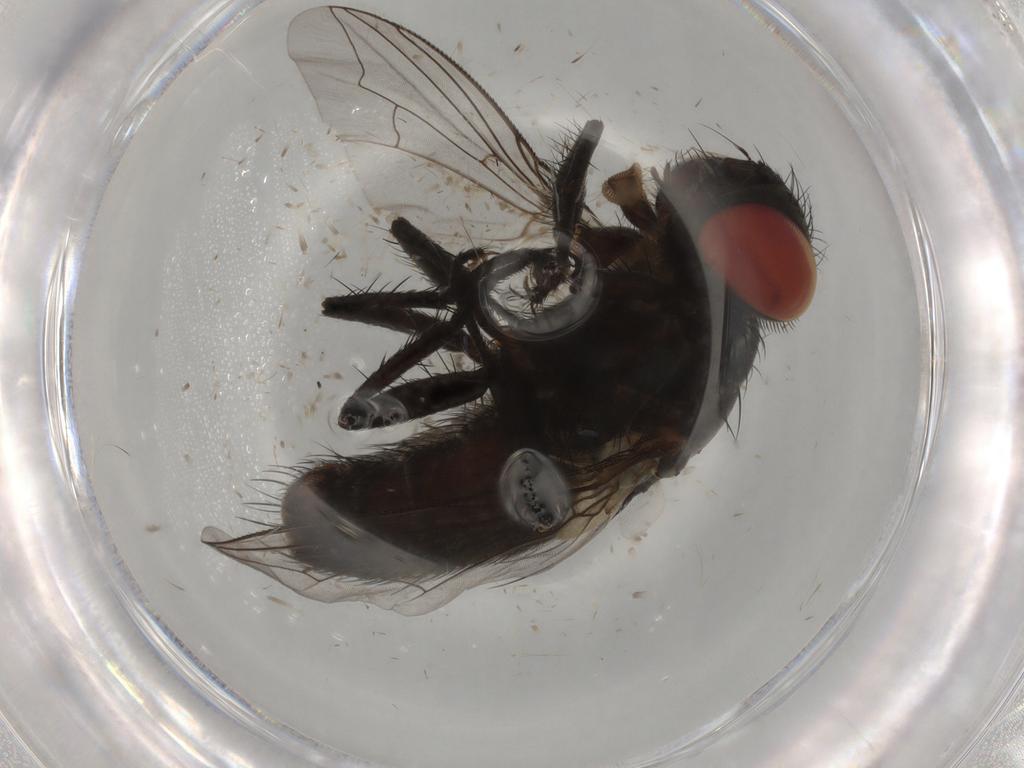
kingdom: Animalia
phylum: Arthropoda
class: Insecta
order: Diptera
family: Sarcophagidae
